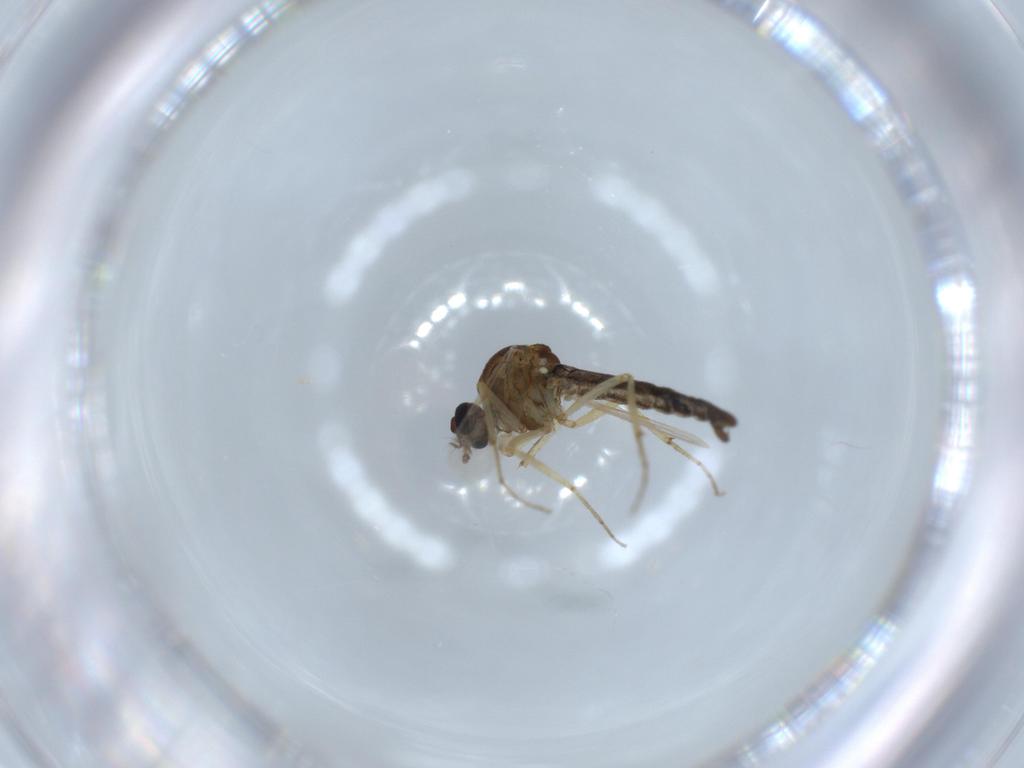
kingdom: Animalia
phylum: Arthropoda
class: Insecta
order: Diptera
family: Ceratopogonidae
